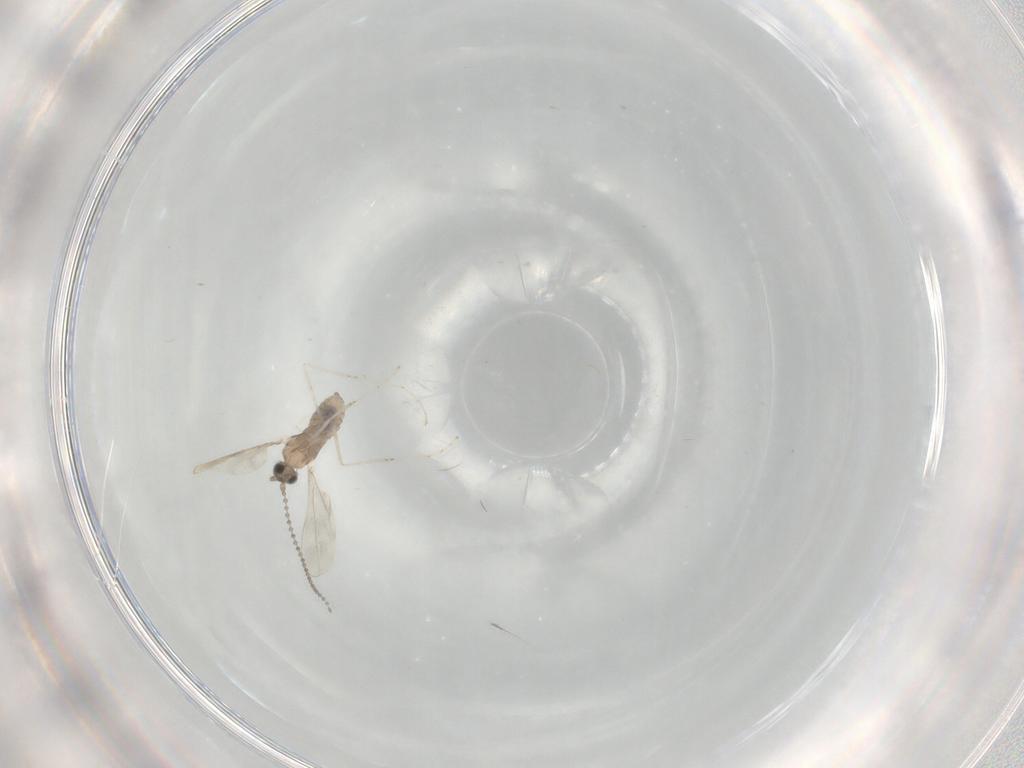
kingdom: Animalia
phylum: Arthropoda
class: Insecta
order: Diptera
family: Cecidomyiidae
